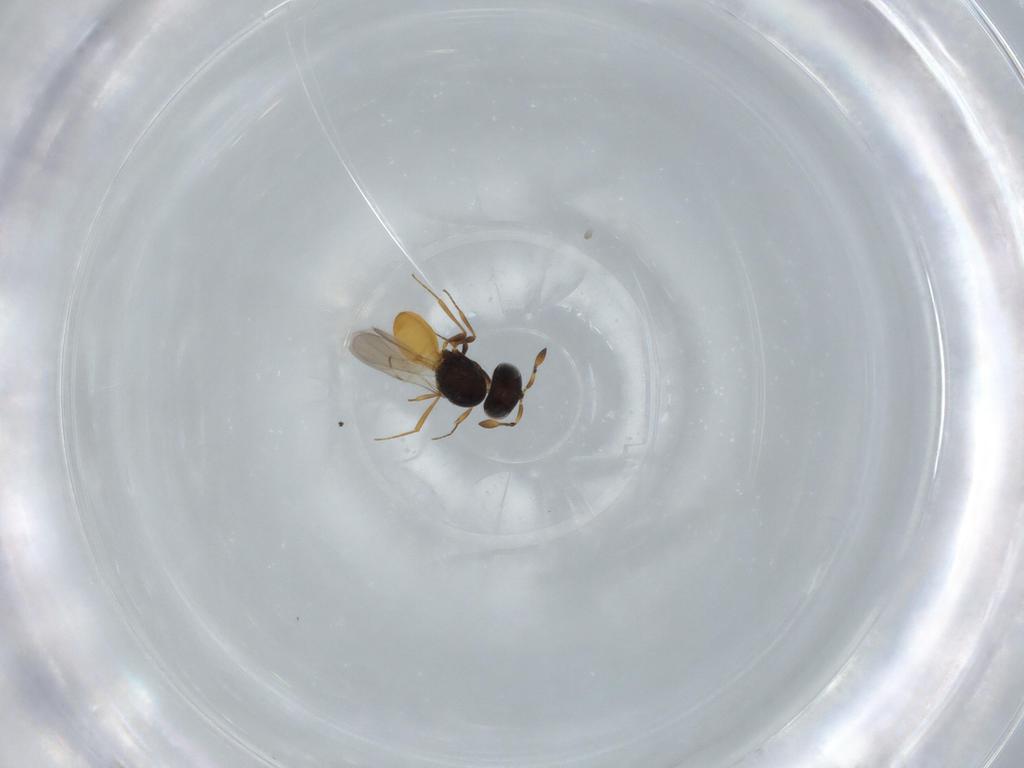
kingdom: Animalia
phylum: Arthropoda
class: Insecta
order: Hymenoptera
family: Scelionidae
